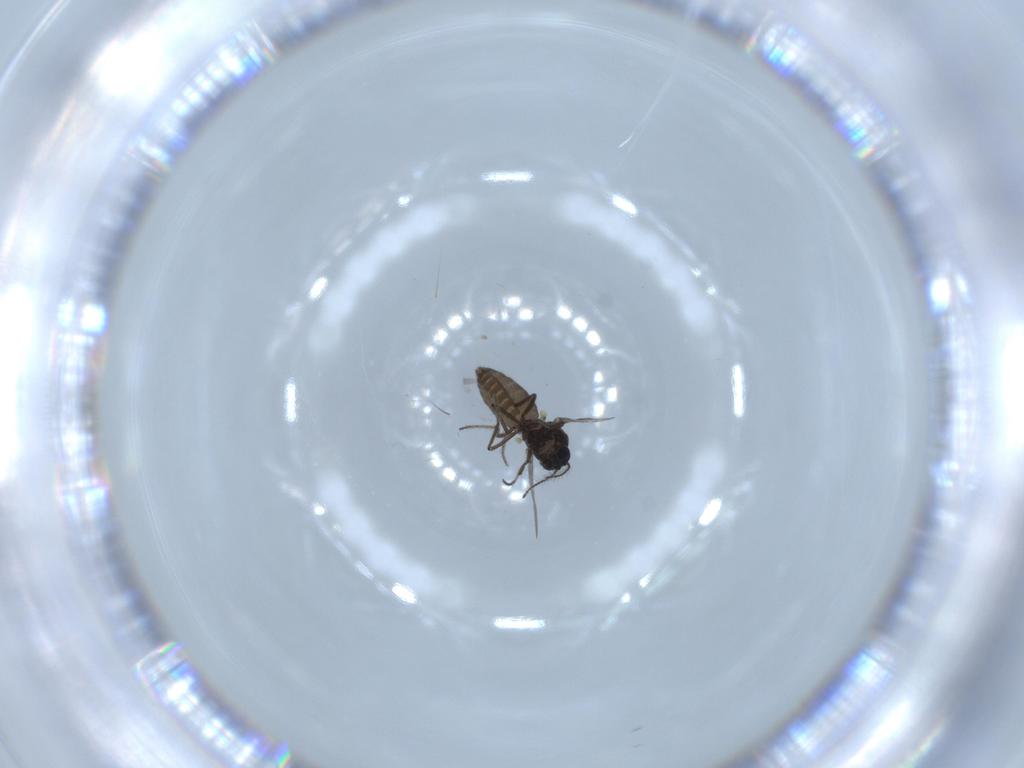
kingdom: Animalia
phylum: Arthropoda
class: Insecta
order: Diptera
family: Ceratopogonidae
